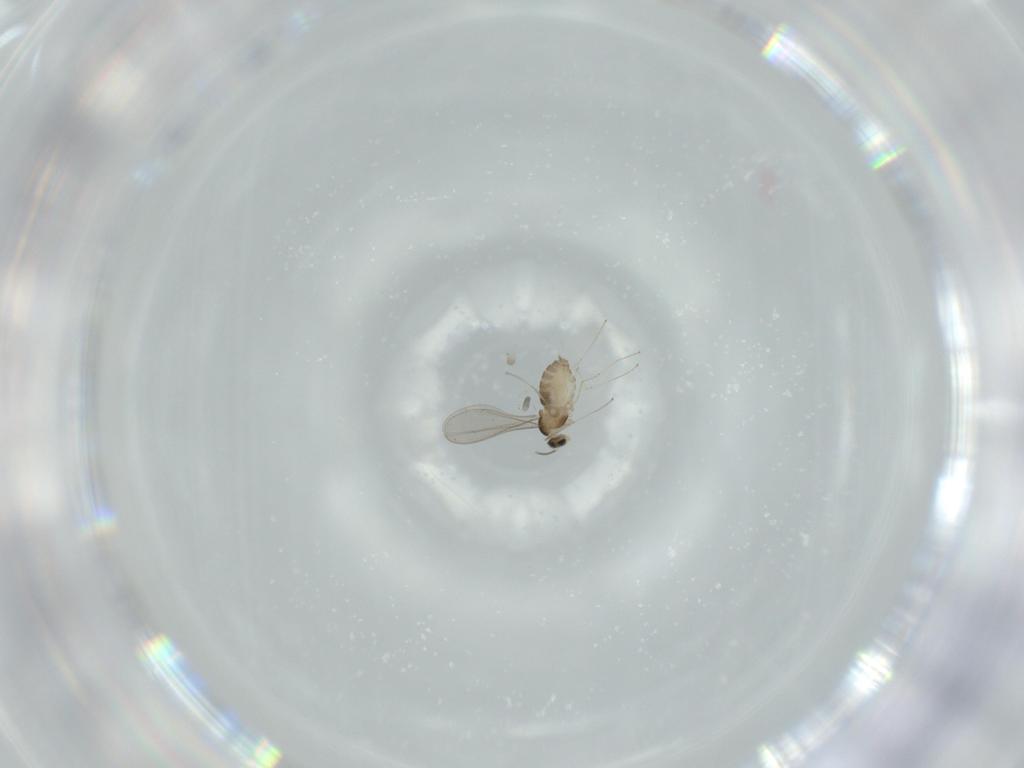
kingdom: Animalia
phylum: Arthropoda
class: Insecta
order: Diptera
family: Cecidomyiidae
